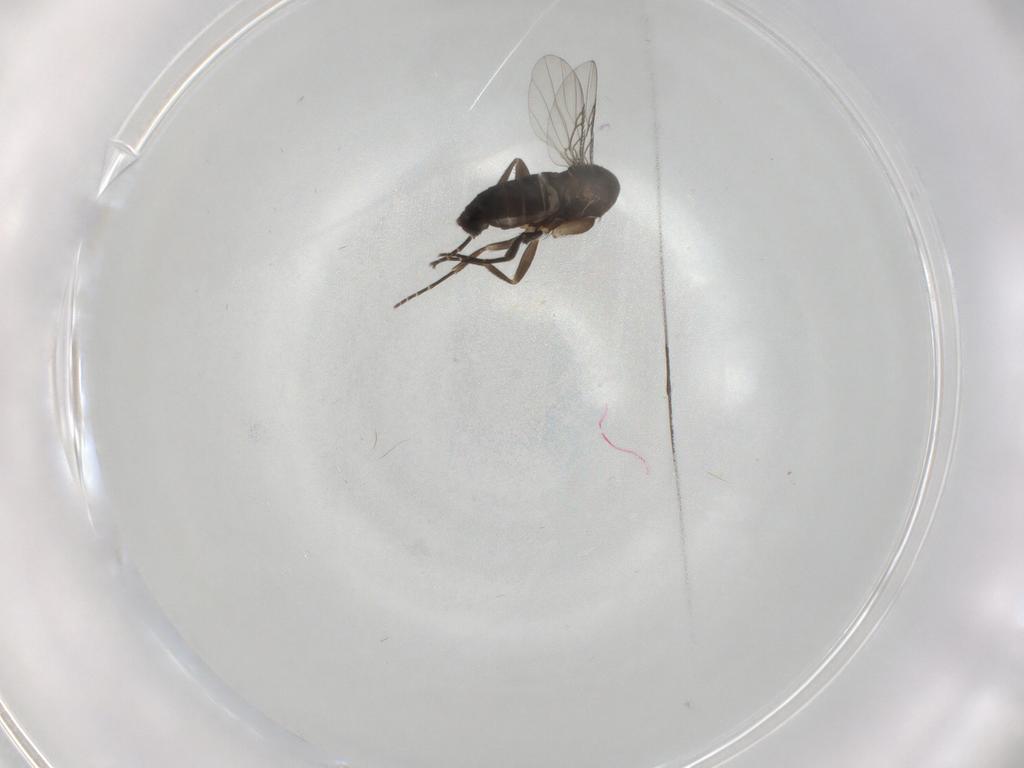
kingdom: Animalia
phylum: Arthropoda
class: Insecta
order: Diptera
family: Phoridae
